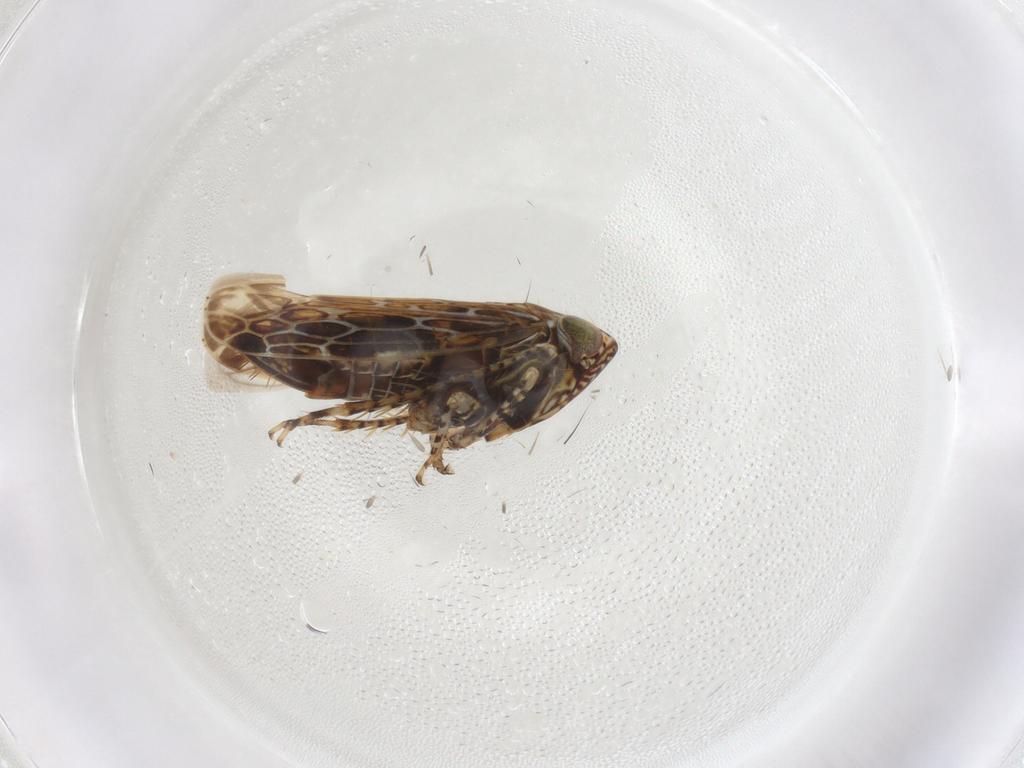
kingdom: Animalia
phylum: Arthropoda
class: Insecta
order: Hemiptera
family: Cicadellidae
